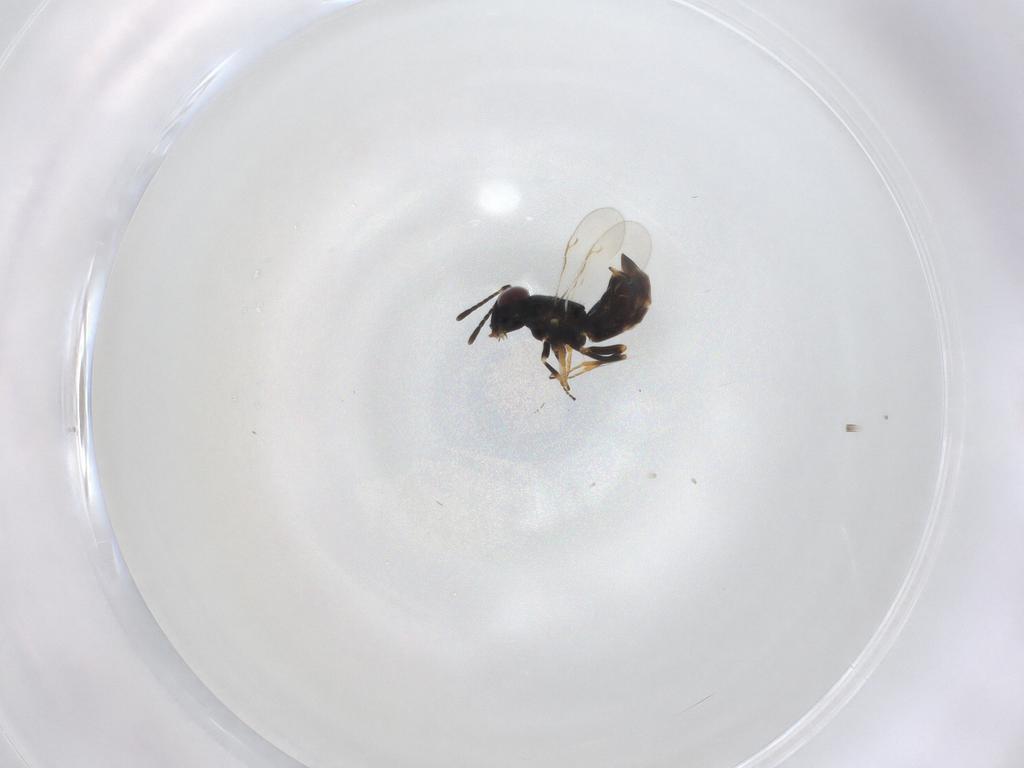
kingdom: Animalia
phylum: Arthropoda
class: Insecta
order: Hymenoptera
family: Encyrtidae
